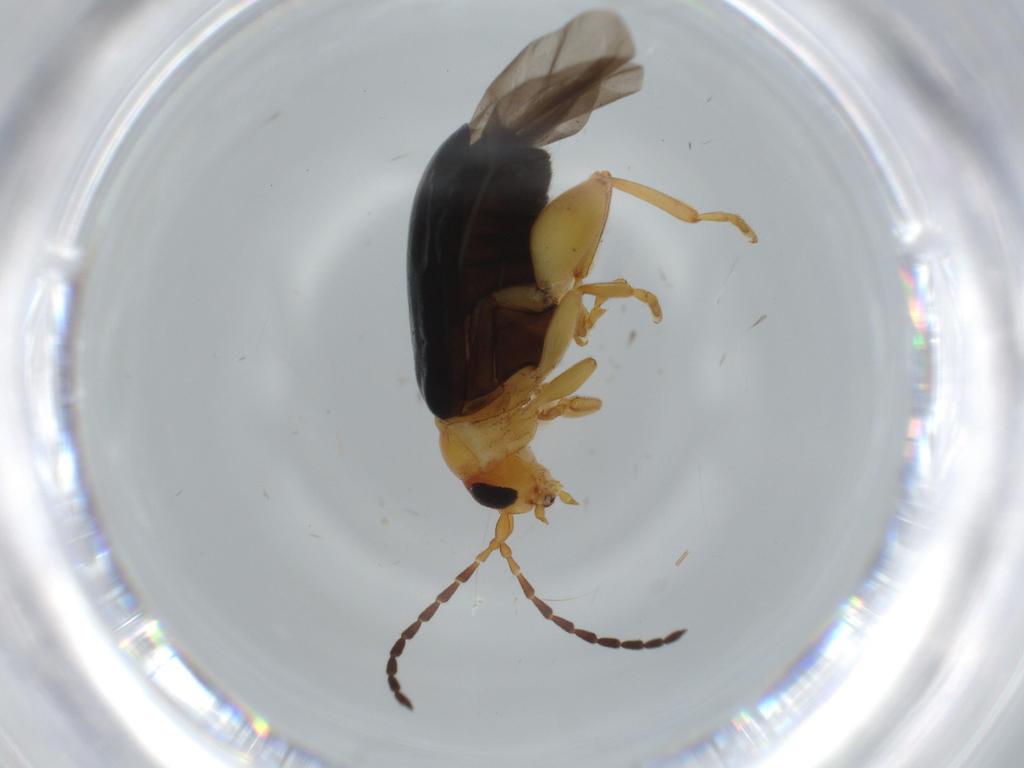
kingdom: Animalia
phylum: Arthropoda
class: Insecta
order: Coleoptera
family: Chrysomelidae
